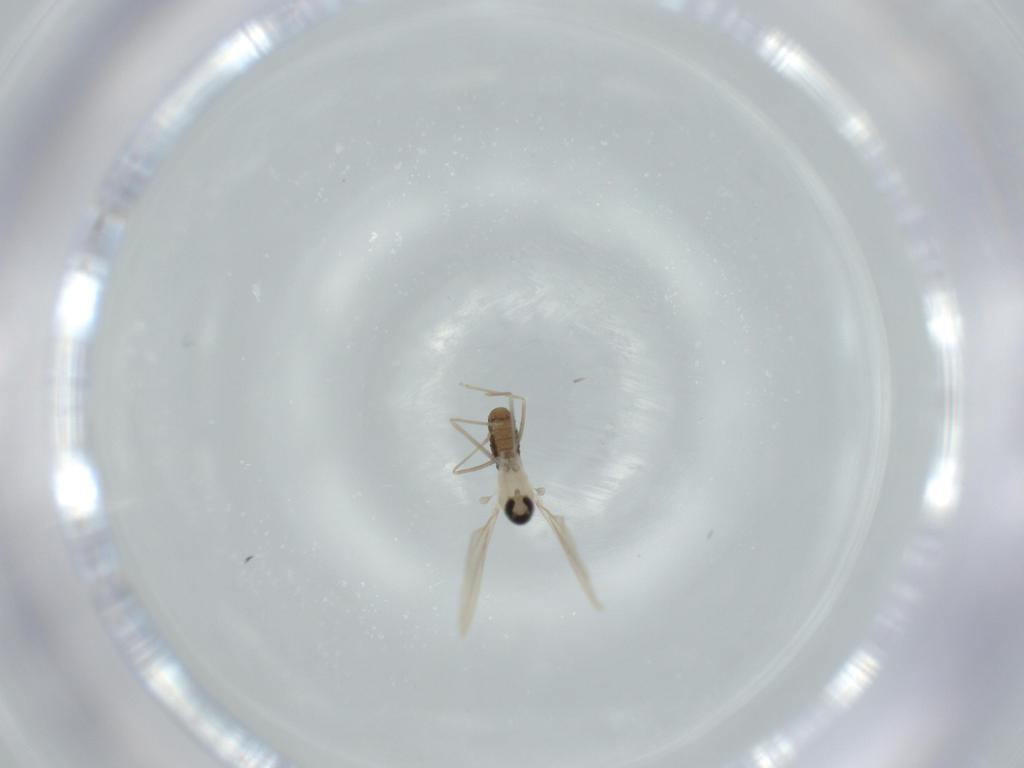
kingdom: Animalia
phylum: Arthropoda
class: Insecta
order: Diptera
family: Cecidomyiidae
